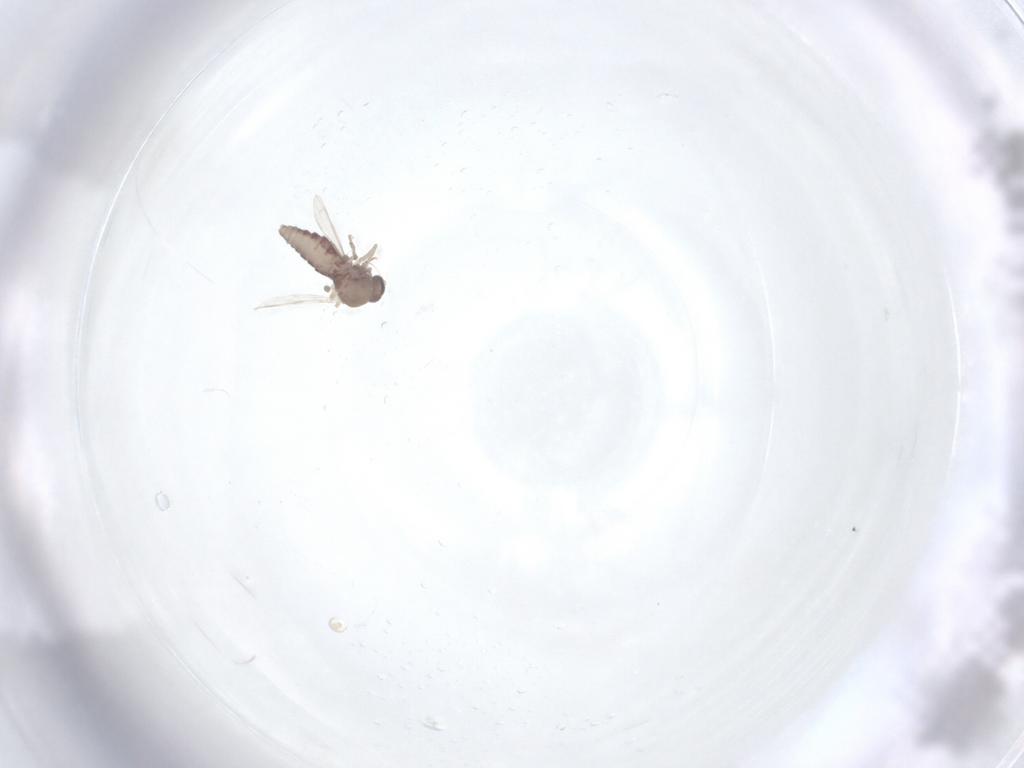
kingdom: Animalia
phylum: Arthropoda
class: Insecta
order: Diptera
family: Ceratopogonidae
